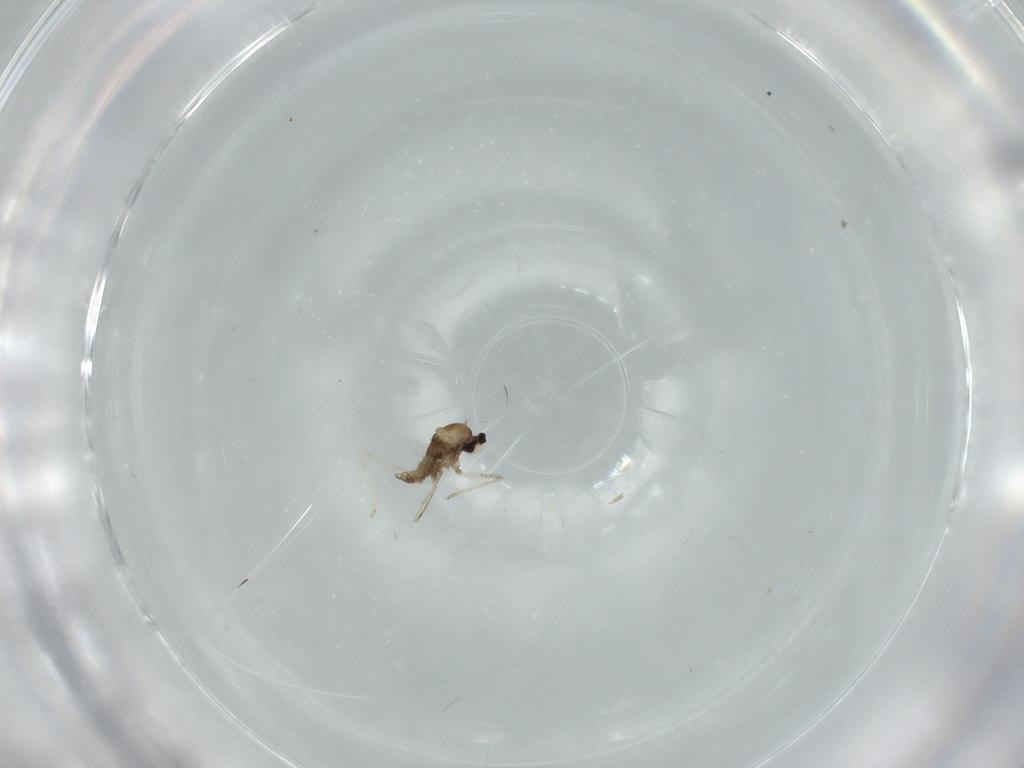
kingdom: Animalia
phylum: Arthropoda
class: Insecta
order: Diptera
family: Cecidomyiidae
